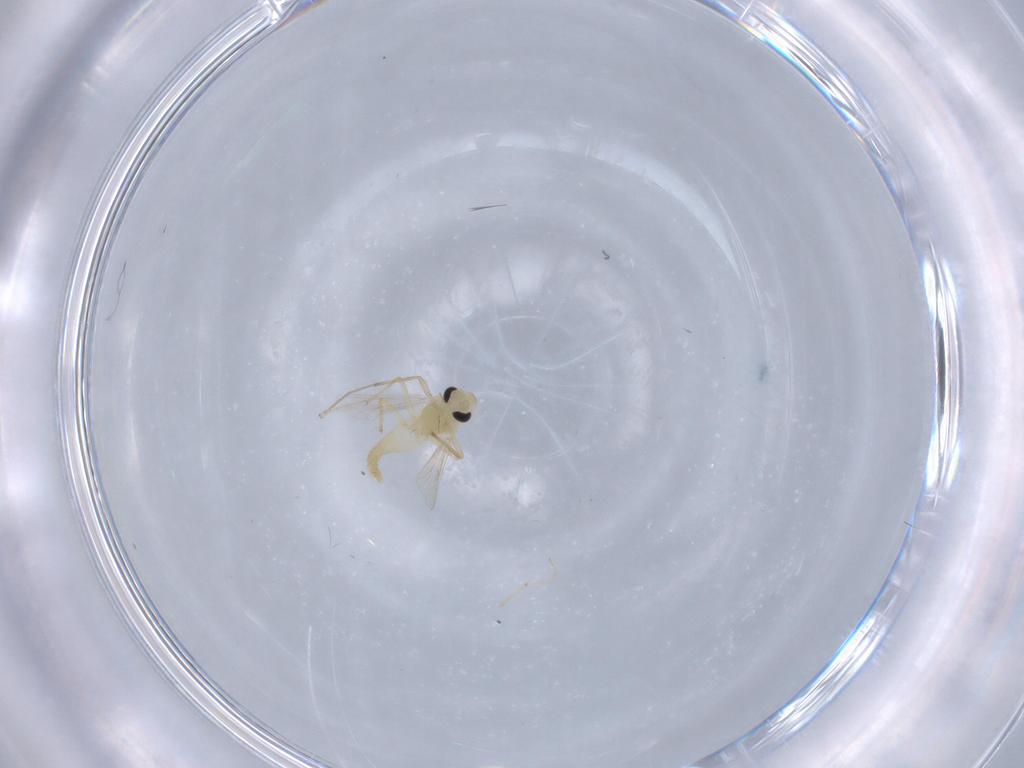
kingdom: Animalia
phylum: Arthropoda
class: Insecta
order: Diptera
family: Chironomidae
